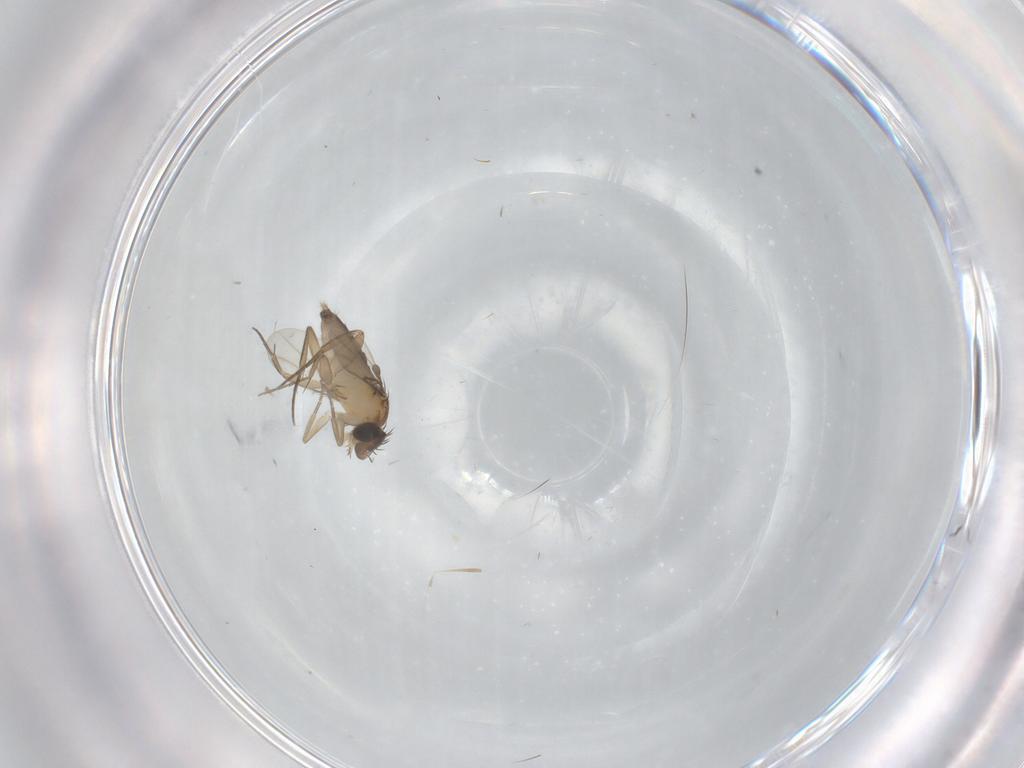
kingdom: Animalia
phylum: Arthropoda
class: Insecta
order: Diptera
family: Phoridae
